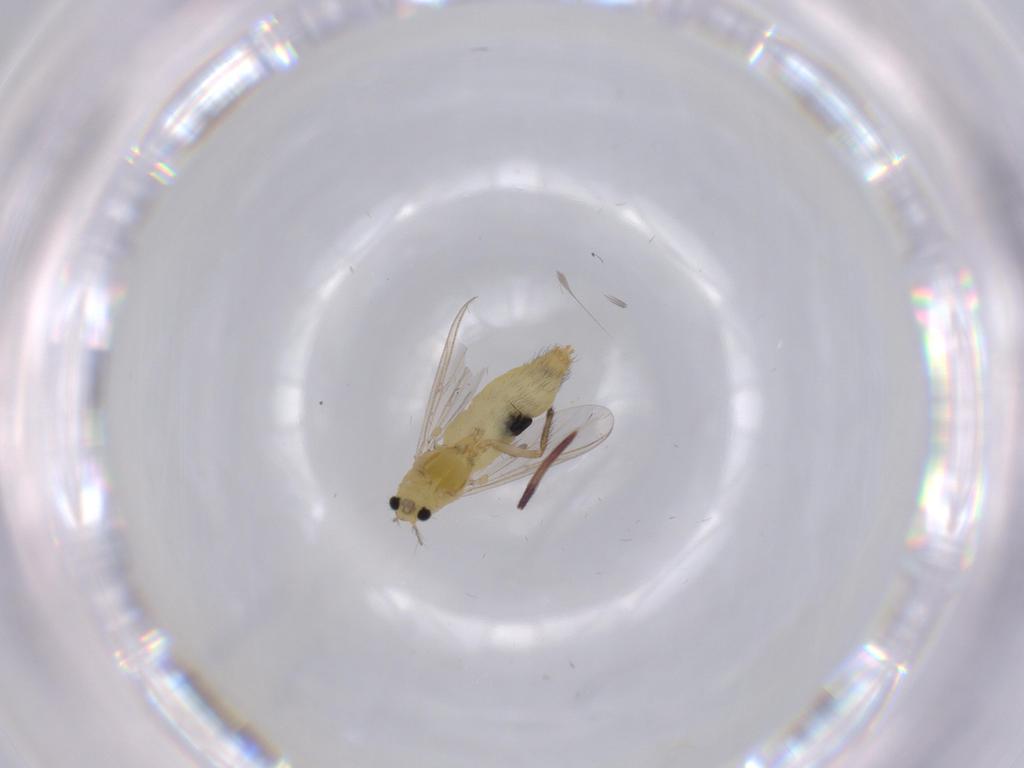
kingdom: Animalia
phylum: Arthropoda
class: Insecta
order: Diptera
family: Chironomidae
